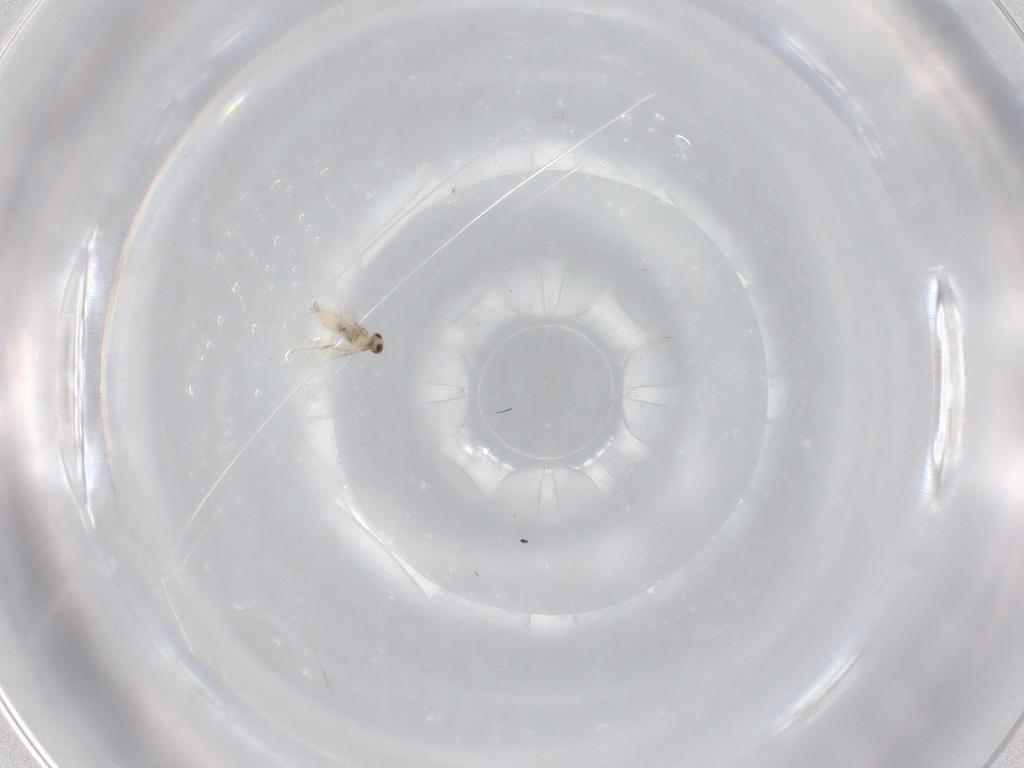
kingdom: Animalia
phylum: Arthropoda
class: Insecta
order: Diptera
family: Cecidomyiidae
